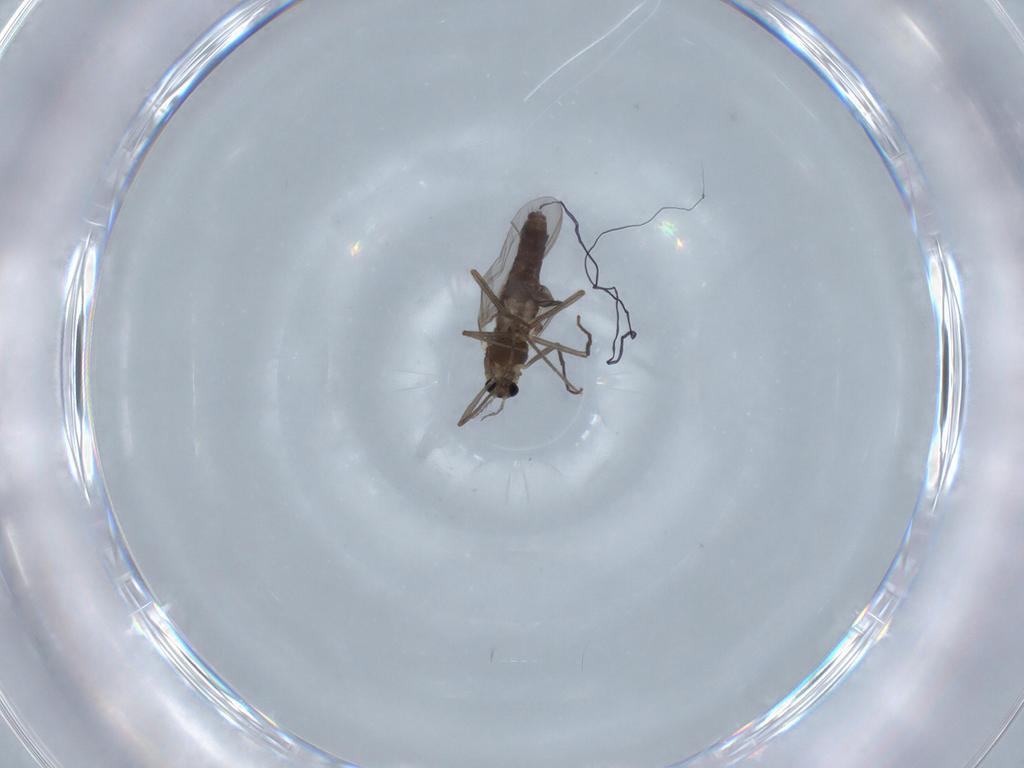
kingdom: Animalia
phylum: Arthropoda
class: Insecta
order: Diptera
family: Chironomidae
